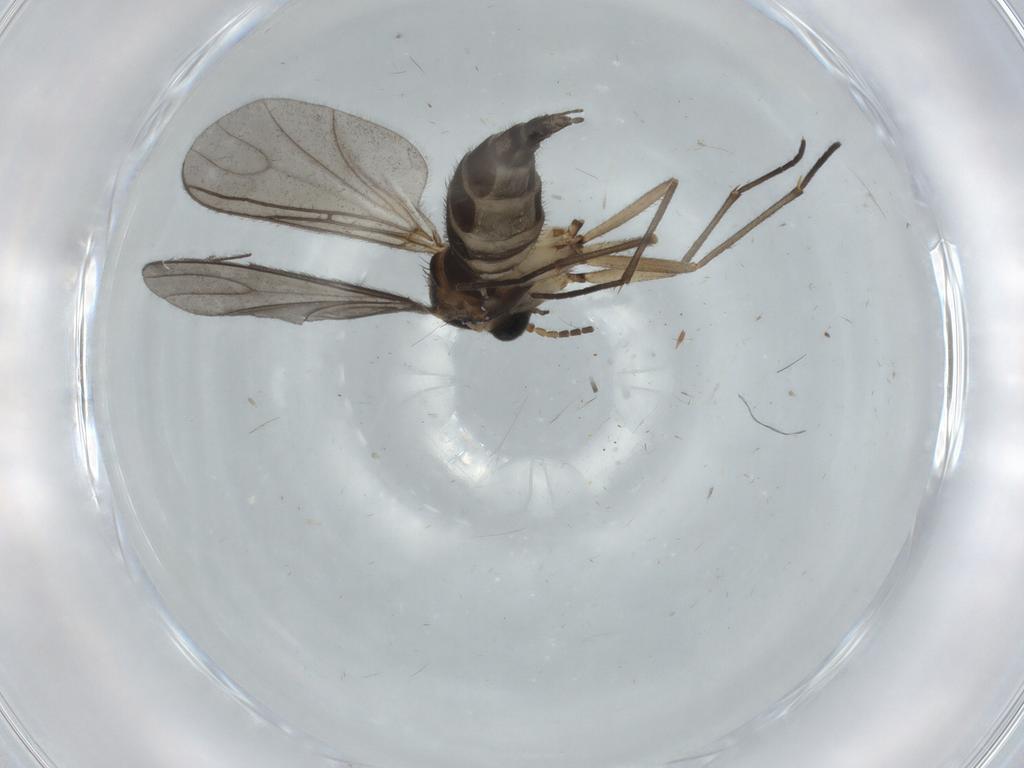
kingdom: Animalia
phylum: Arthropoda
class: Insecta
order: Diptera
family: Sciaridae
